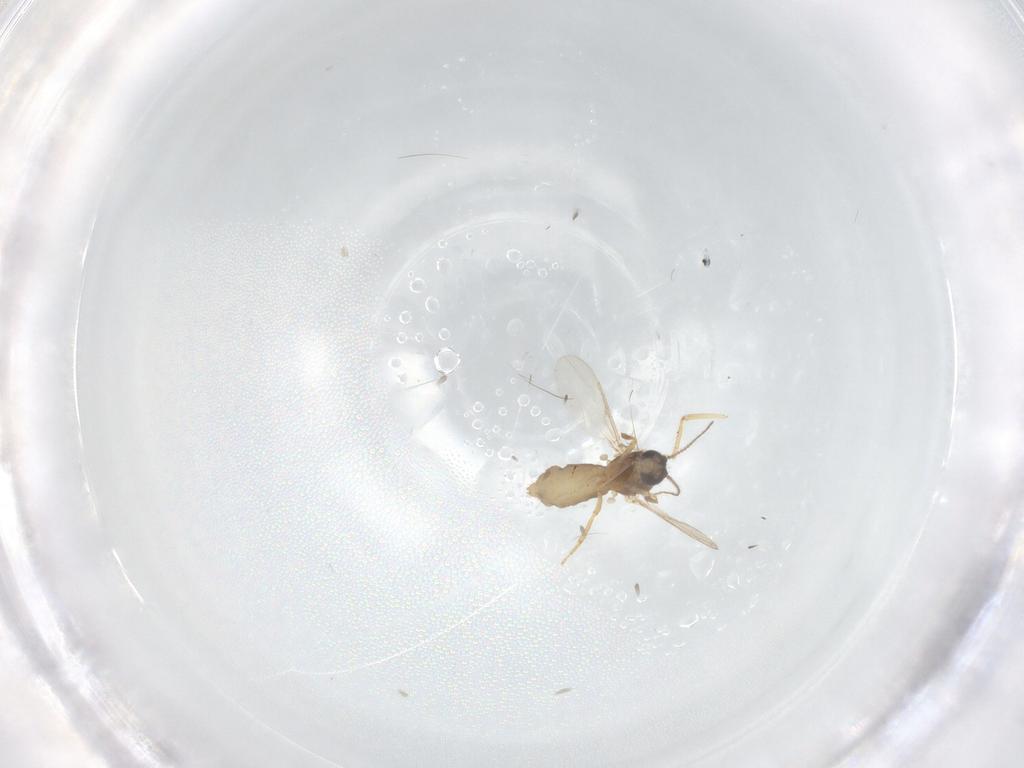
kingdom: Animalia
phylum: Arthropoda
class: Insecta
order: Diptera
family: Ceratopogonidae
